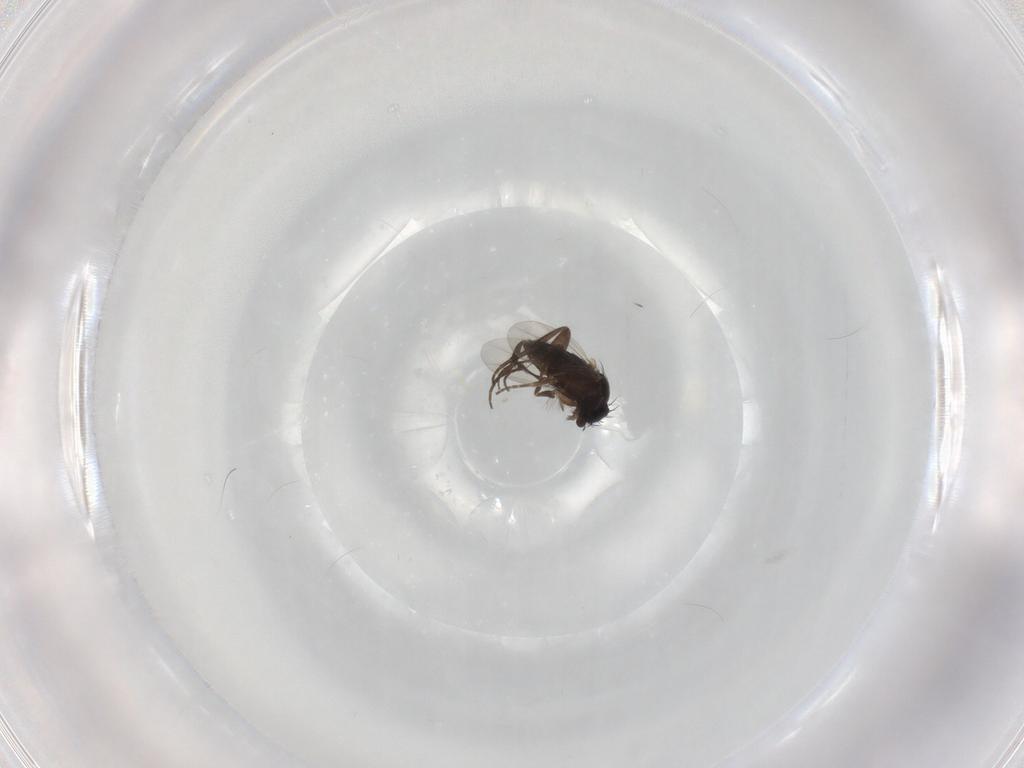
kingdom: Animalia
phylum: Arthropoda
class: Insecta
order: Diptera
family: Phoridae
